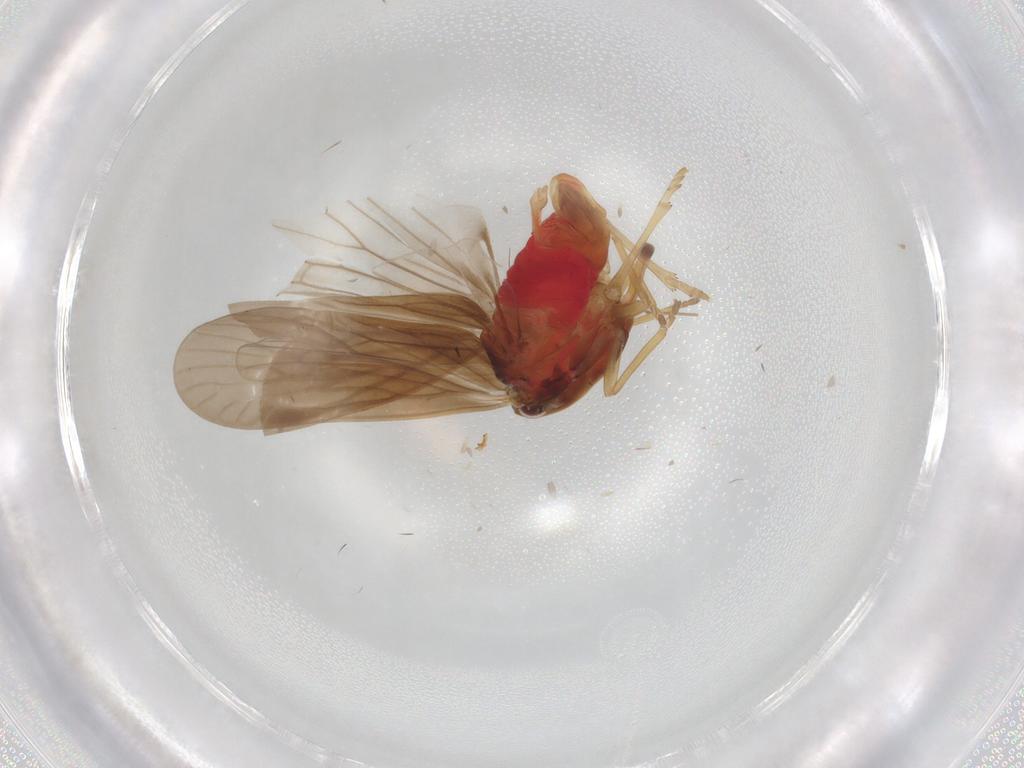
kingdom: Animalia
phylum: Arthropoda
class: Insecta
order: Hemiptera
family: Derbidae
